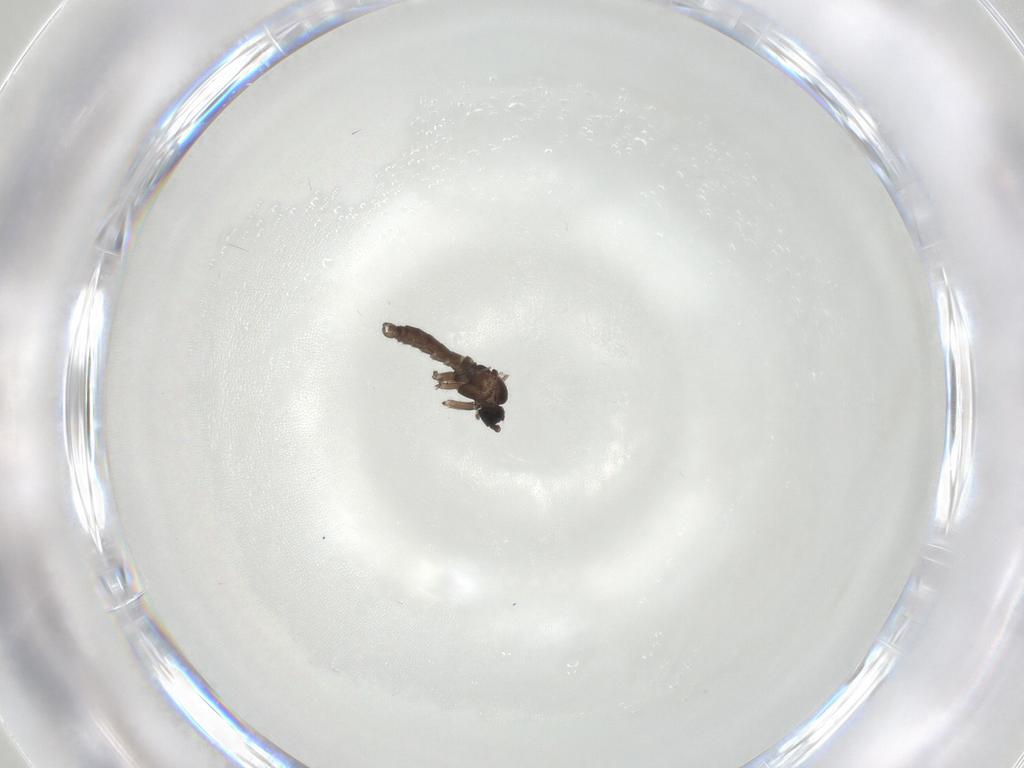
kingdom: Animalia
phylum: Arthropoda
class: Insecta
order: Diptera
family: Sciaridae
